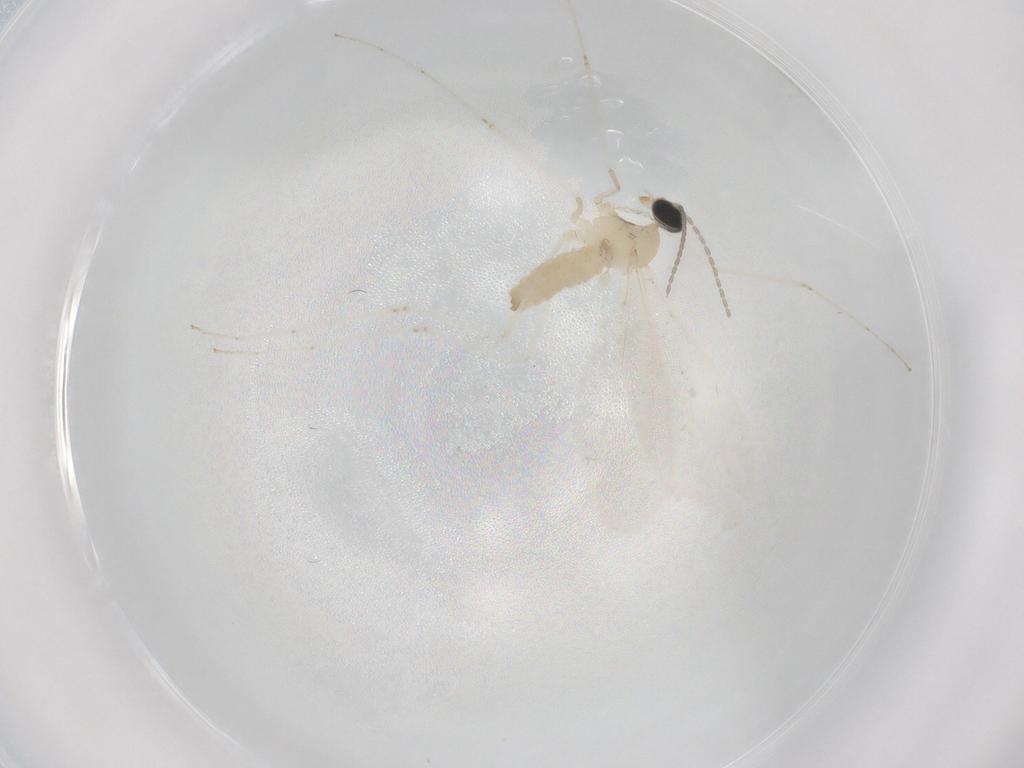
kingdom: Animalia
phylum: Arthropoda
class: Insecta
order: Diptera
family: Cecidomyiidae
